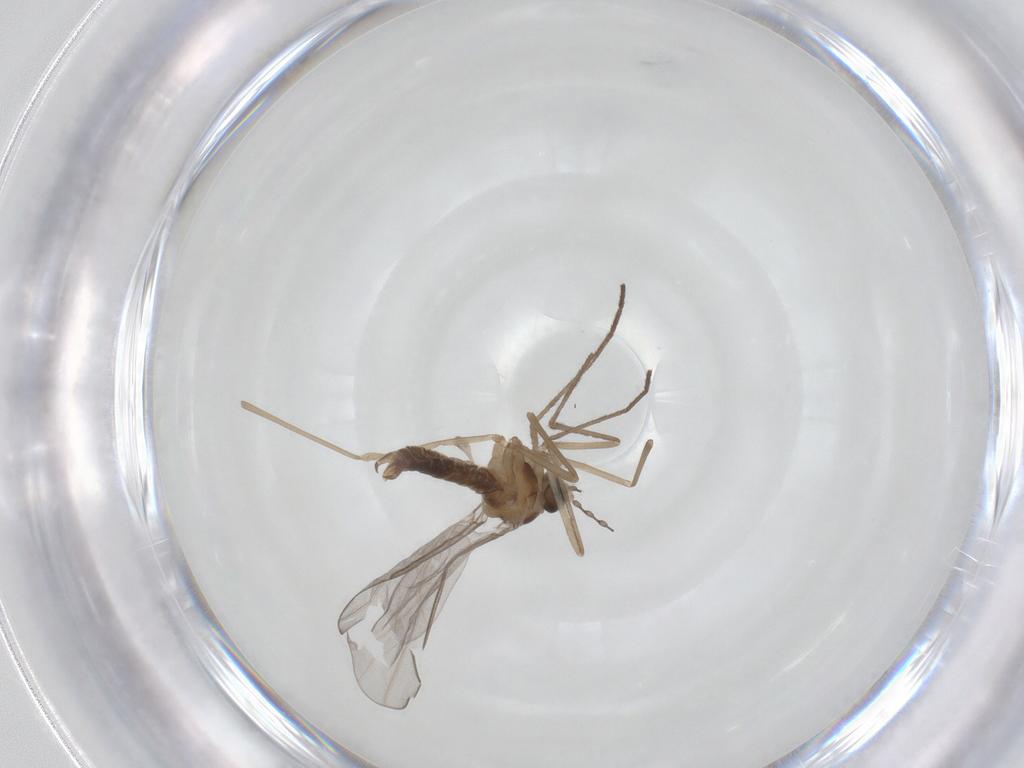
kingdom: Animalia
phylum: Arthropoda
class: Insecta
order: Diptera
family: Cecidomyiidae
